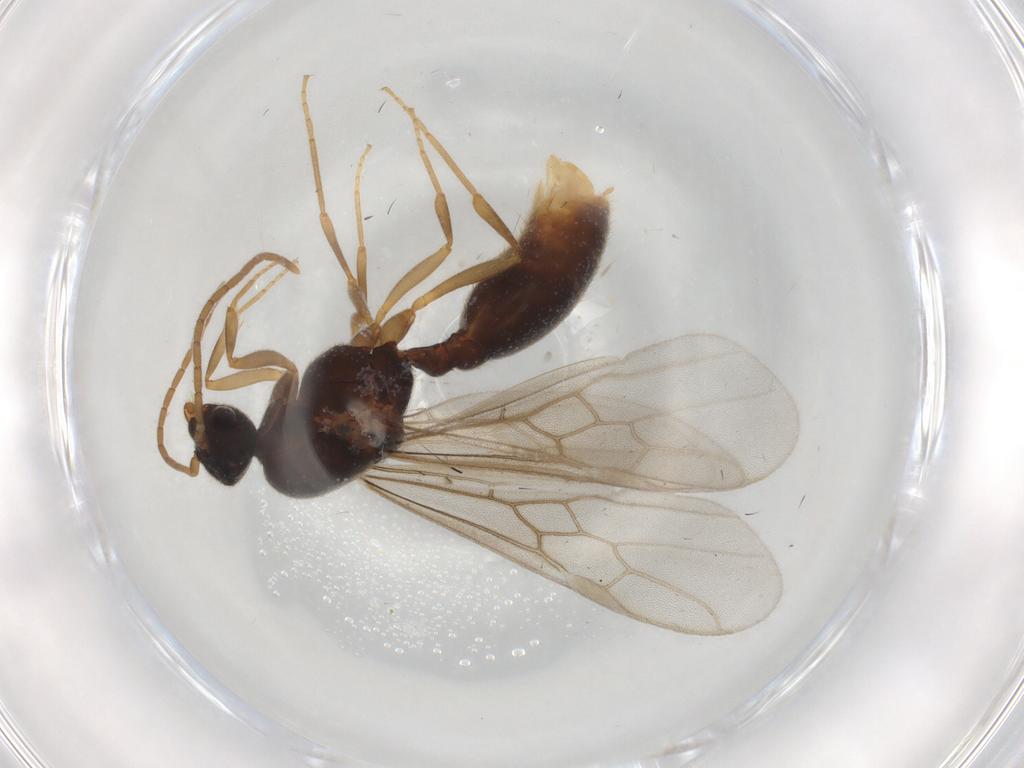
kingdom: Animalia
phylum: Arthropoda
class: Insecta
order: Hymenoptera
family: Formicidae
